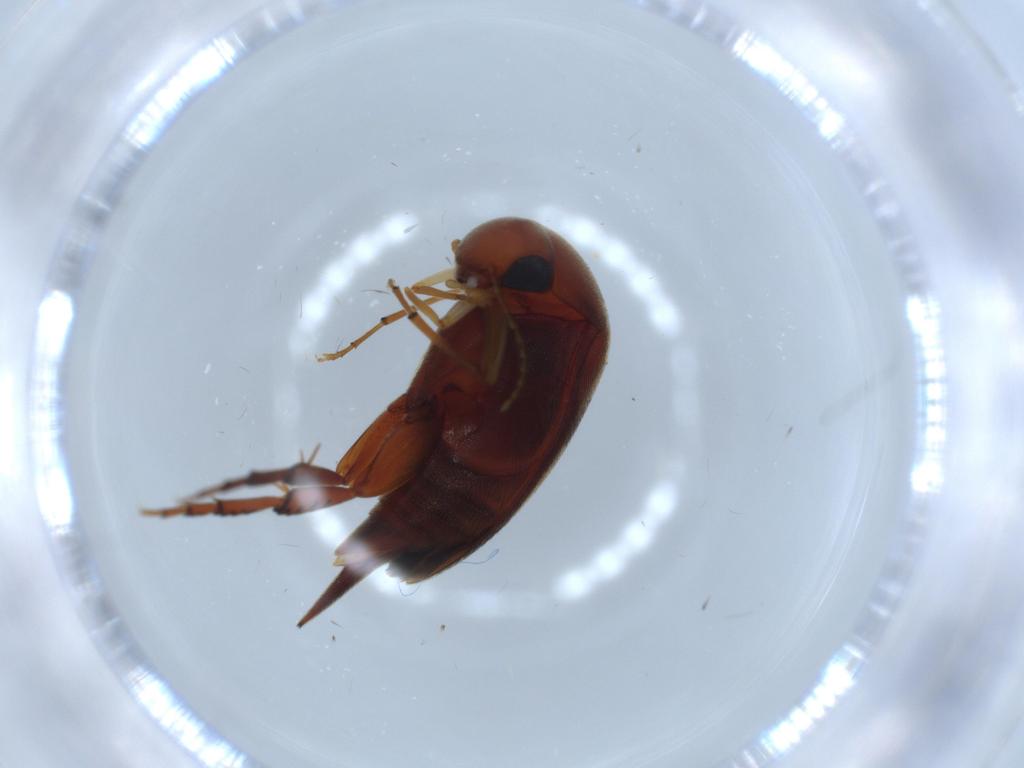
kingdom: Animalia
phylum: Arthropoda
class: Insecta
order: Coleoptera
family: Mordellidae
